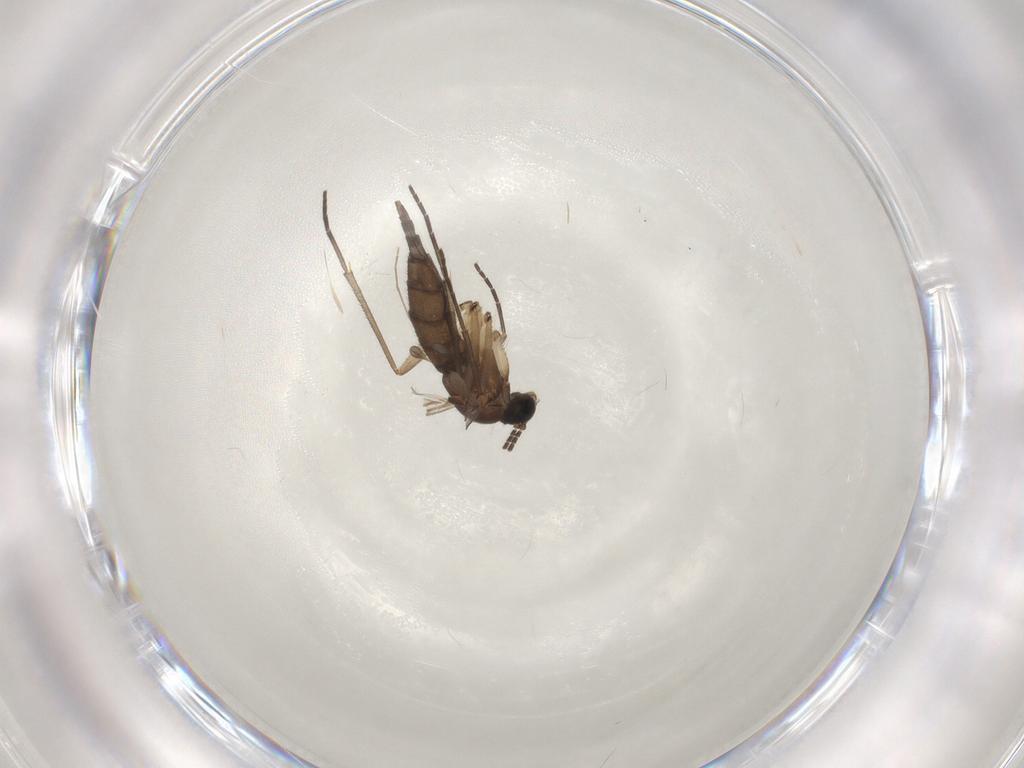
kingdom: Animalia
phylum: Arthropoda
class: Insecta
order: Diptera
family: Sciaridae
